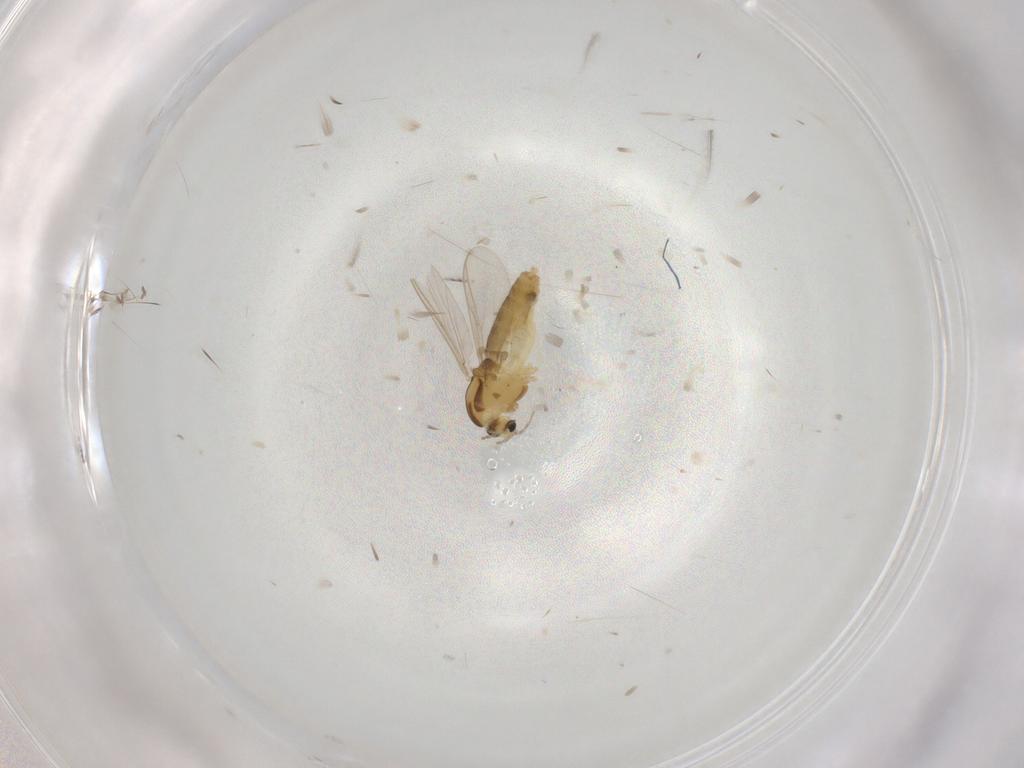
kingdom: Animalia
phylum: Arthropoda
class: Insecta
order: Diptera
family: Chironomidae
